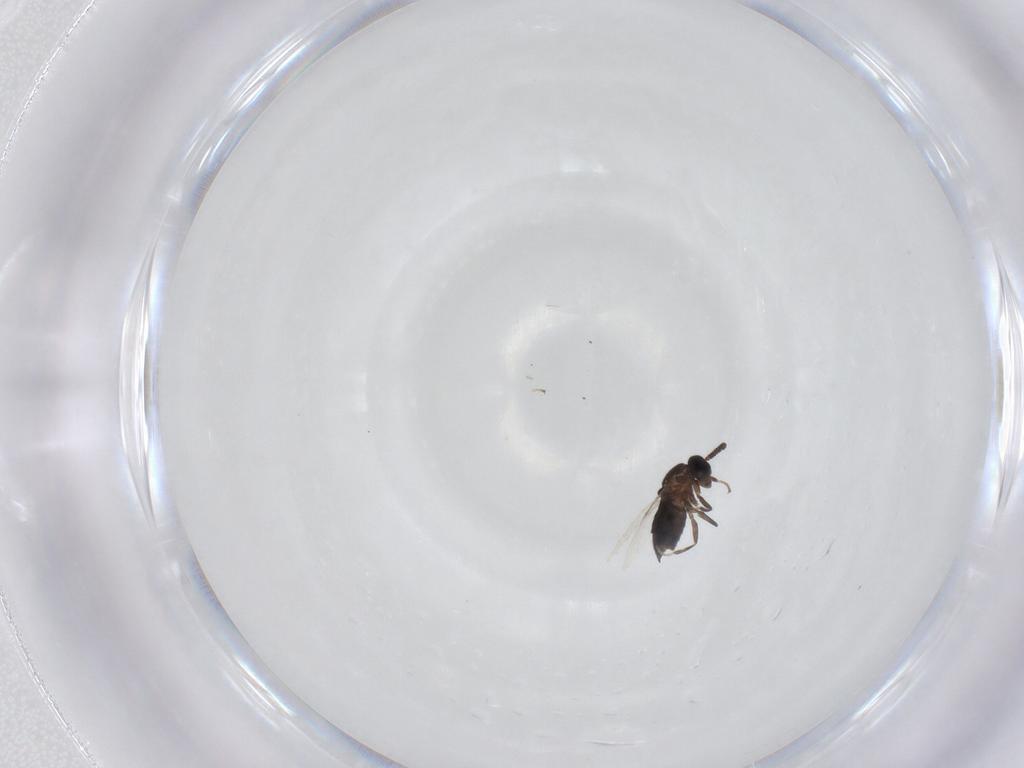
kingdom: Animalia
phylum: Arthropoda
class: Insecta
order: Diptera
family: Scatopsidae
